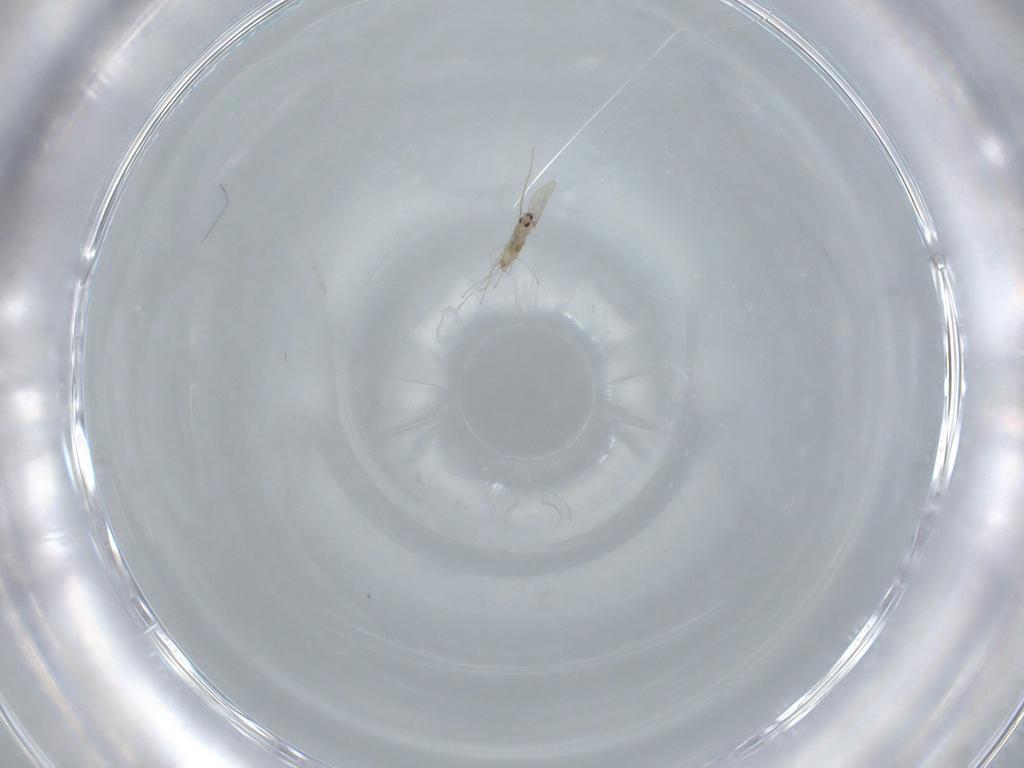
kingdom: Animalia
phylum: Arthropoda
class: Insecta
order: Diptera
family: Cecidomyiidae
